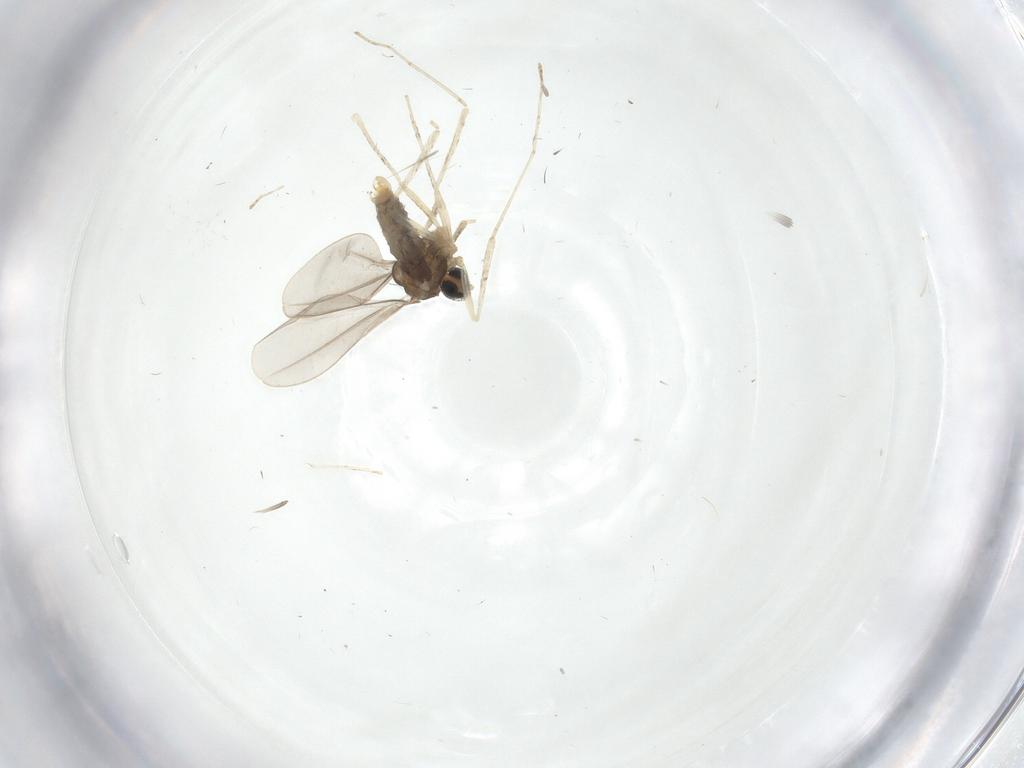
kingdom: Animalia
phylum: Arthropoda
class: Insecta
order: Diptera
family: Cecidomyiidae
